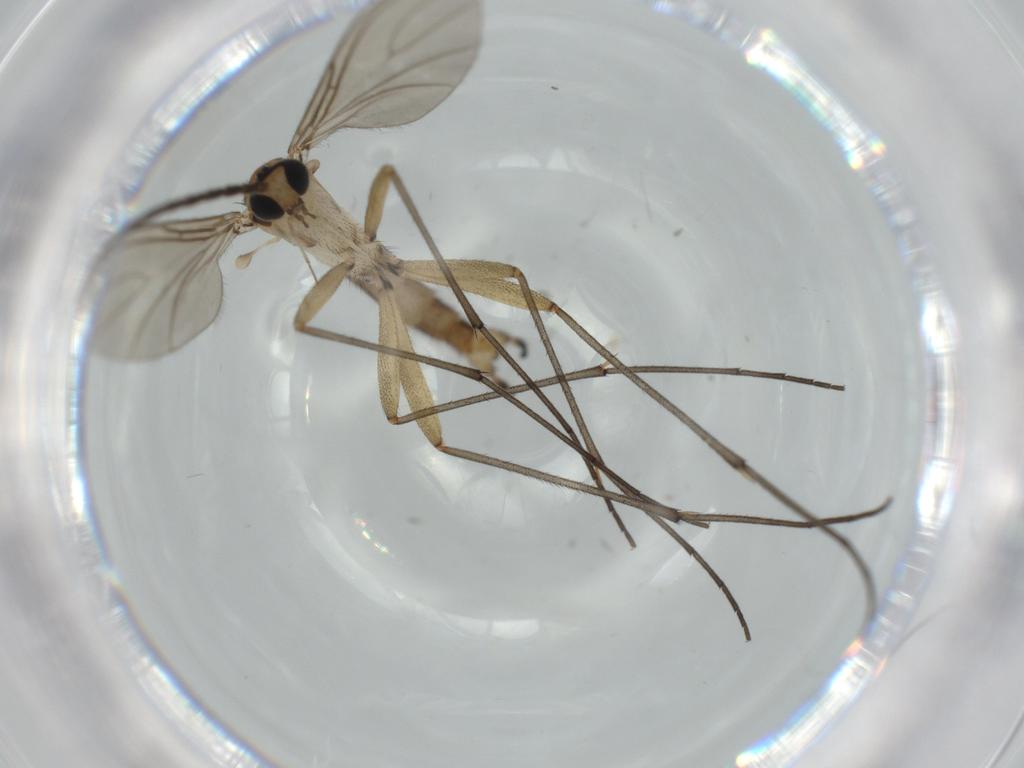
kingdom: Animalia
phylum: Arthropoda
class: Insecta
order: Diptera
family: Sciaridae
